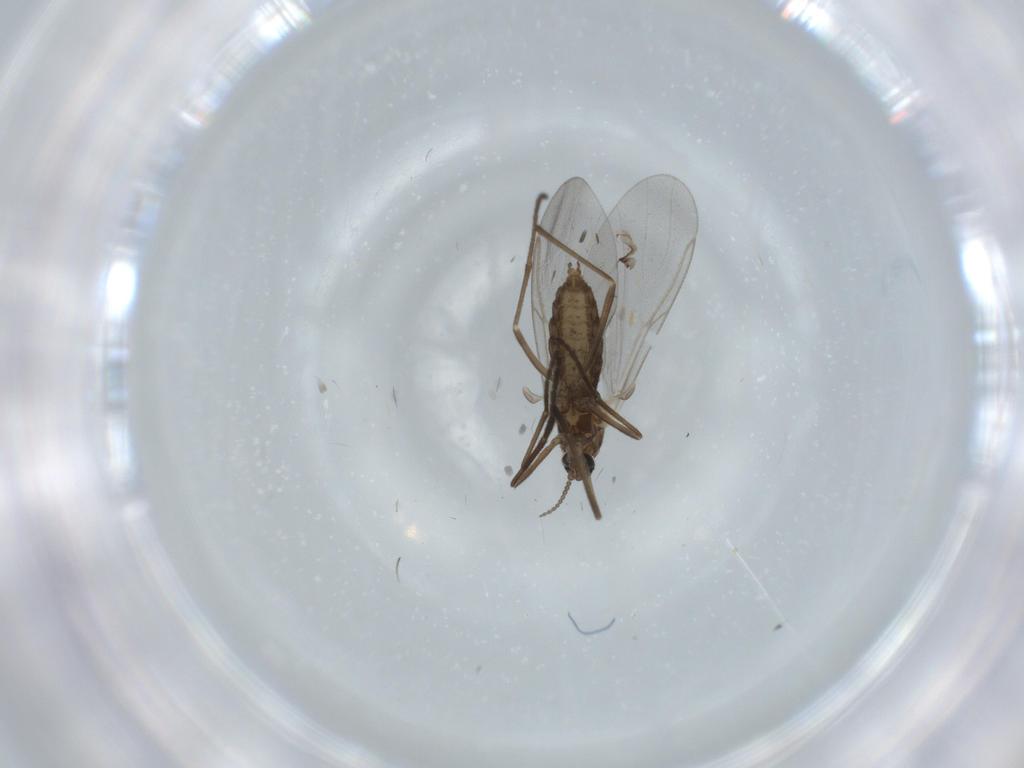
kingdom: Animalia
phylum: Arthropoda
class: Insecta
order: Diptera
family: Cecidomyiidae
